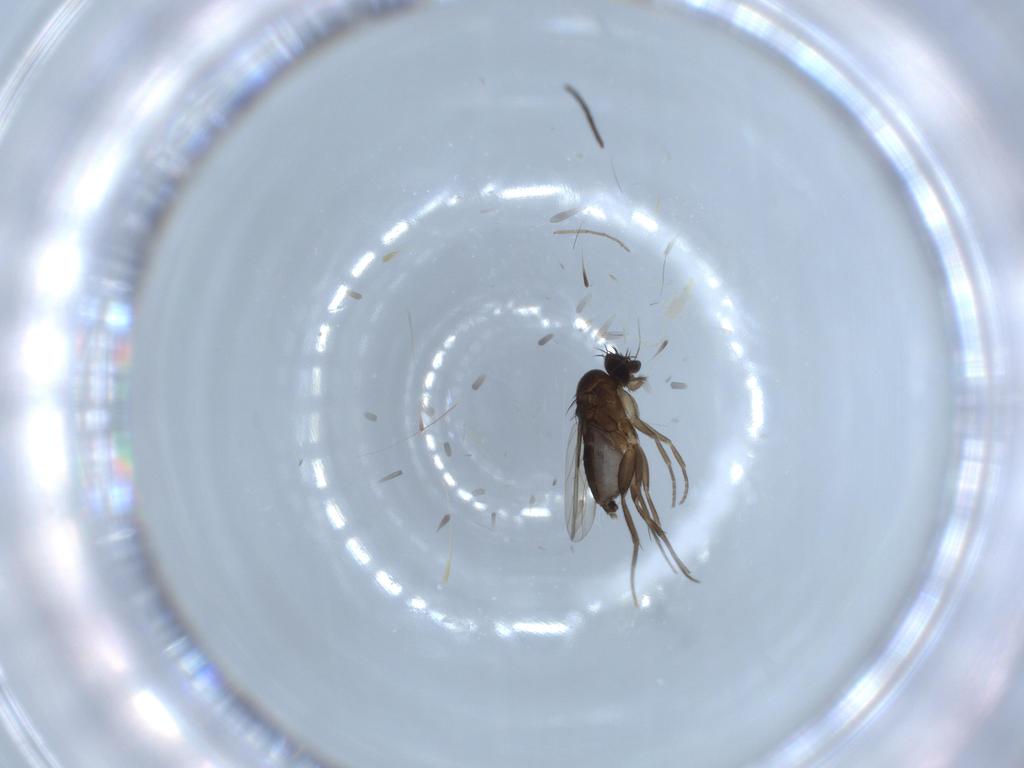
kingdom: Animalia
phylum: Arthropoda
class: Insecta
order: Diptera
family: Phoridae
